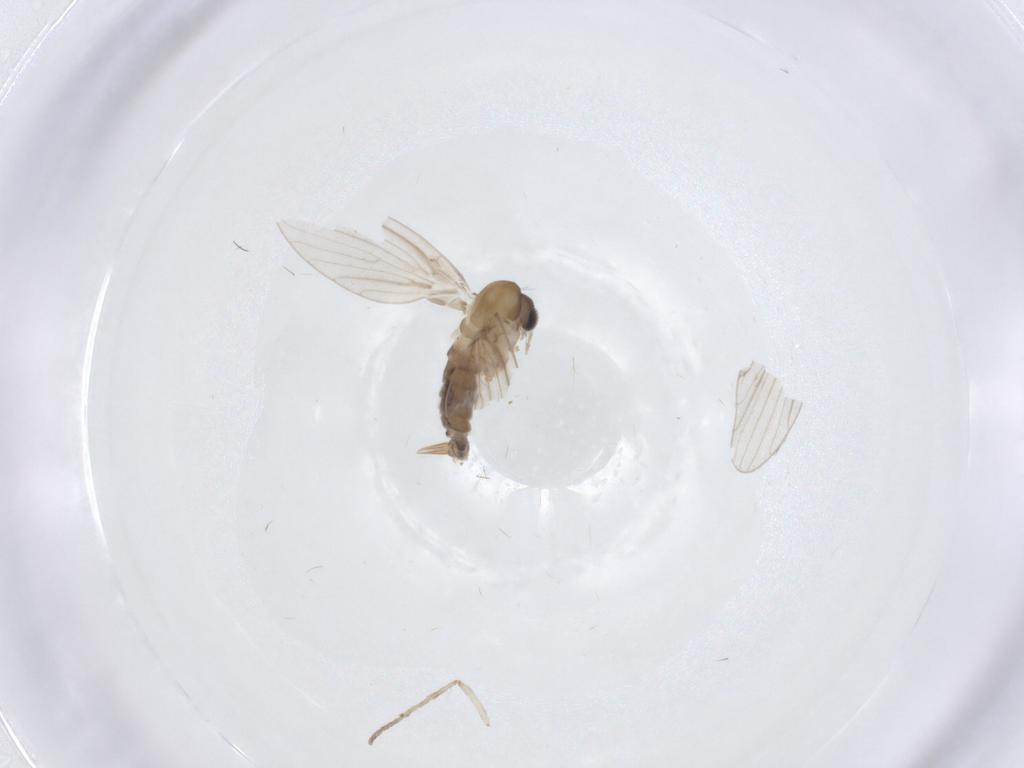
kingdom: Animalia
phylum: Arthropoda
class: Insecta
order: Diptera
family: Psychodidae
